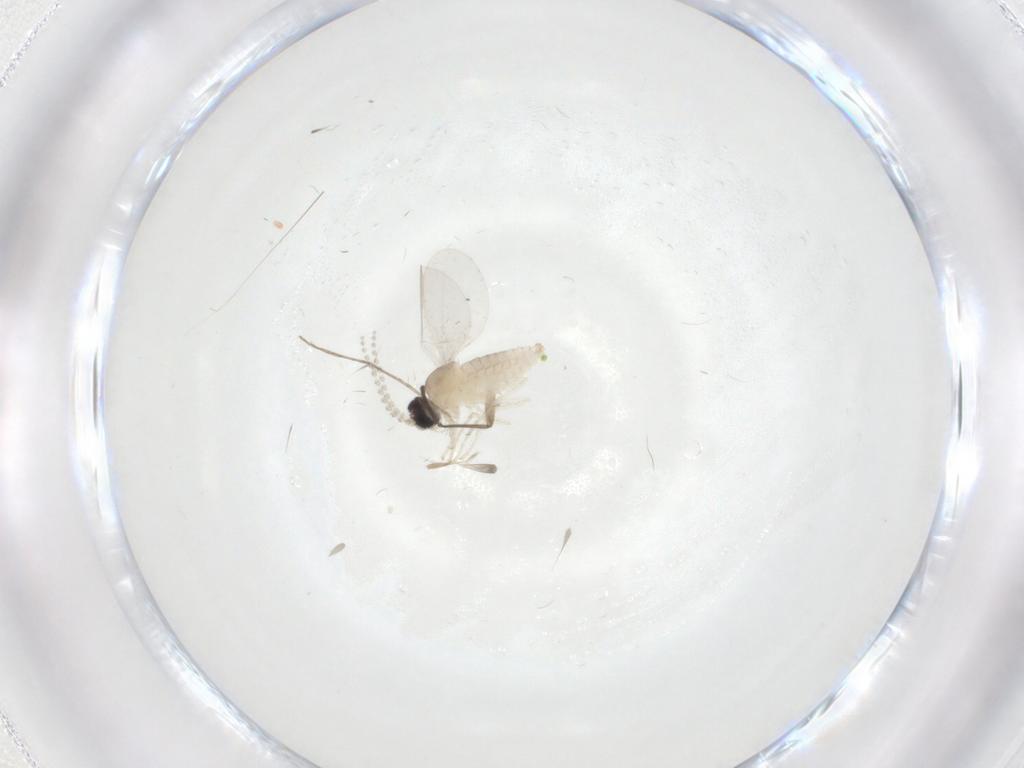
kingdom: Animalia
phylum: Arthropoda
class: Insecta
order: Diptera
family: Cecidomyiidae
